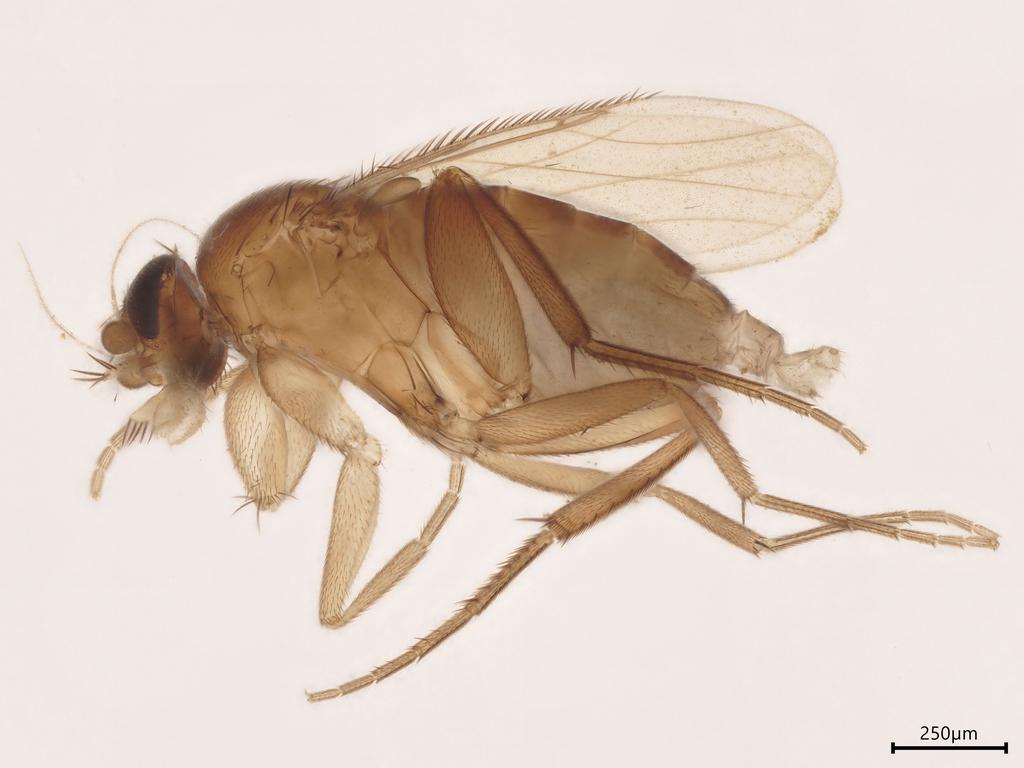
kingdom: Animalia
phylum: Arthropoda
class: Insecta
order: Diptera
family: Phoridae
